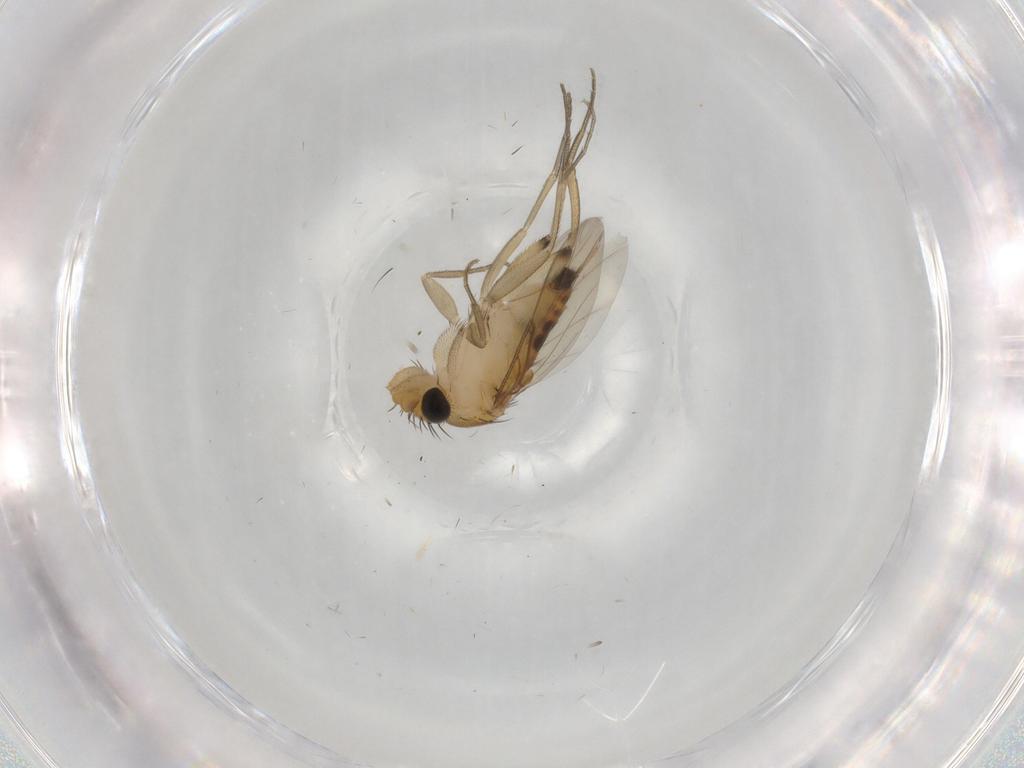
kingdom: Animalia
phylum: Arthropoda
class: Insecta
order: Diptera
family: Phoridae
